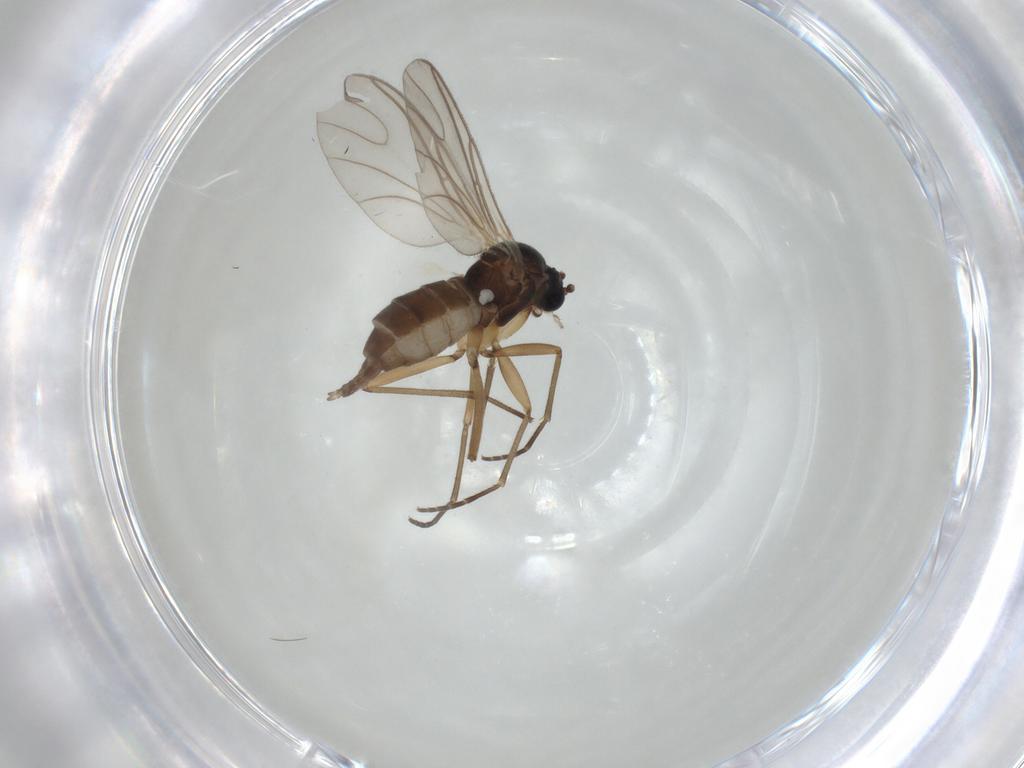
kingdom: Animalia
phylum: Arthropoda
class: Insecta
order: Diptera
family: Sciaridae
